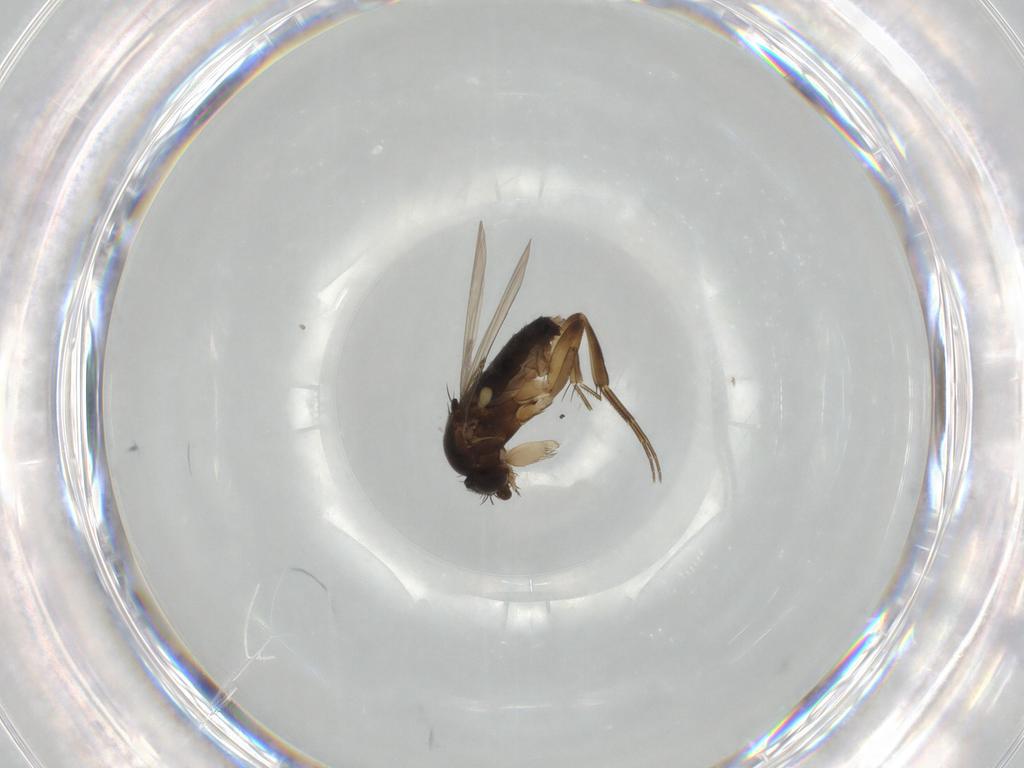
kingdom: Animalia
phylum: Arthropoda
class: Insecta
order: Diptera
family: Phoridae
